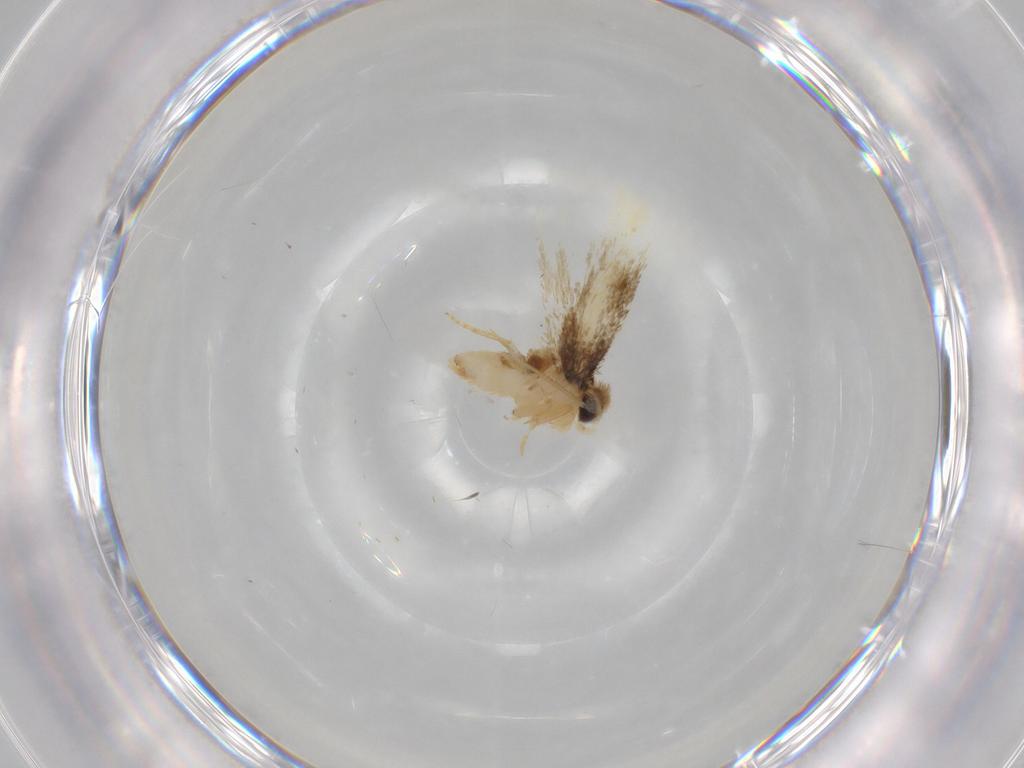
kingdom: Animalia
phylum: Arthropoda
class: Insecta
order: Lepidoptera
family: Nepticulidae
